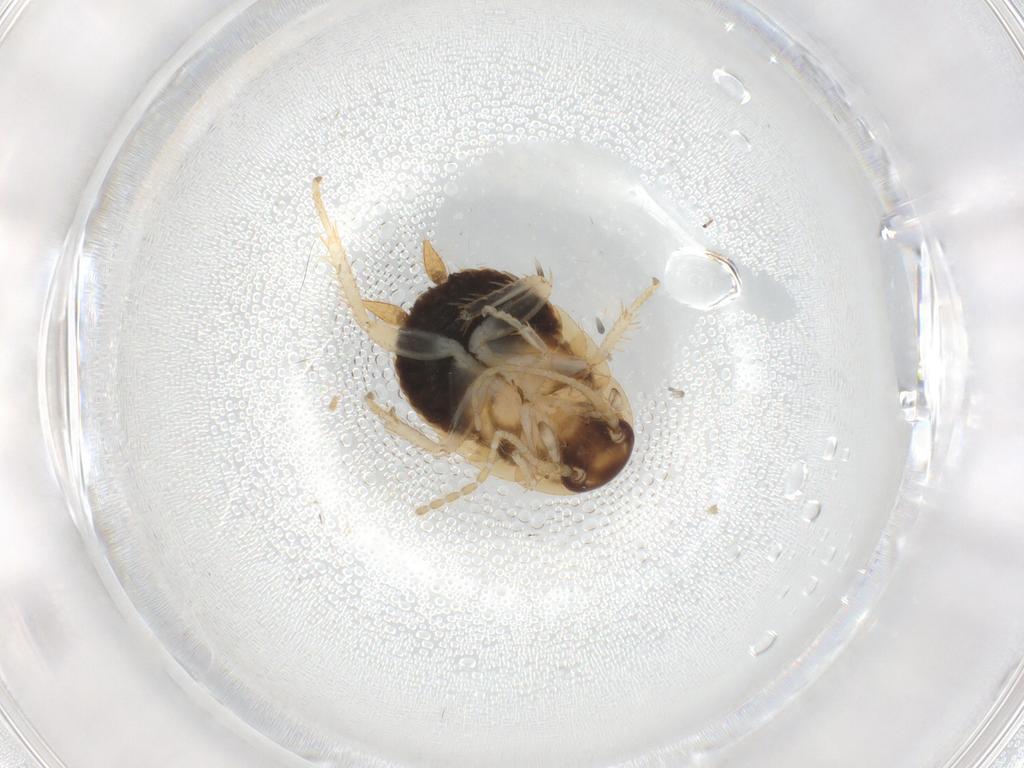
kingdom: Animalia
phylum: Arthropoda
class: Insecta
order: Blattodea
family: Ectobiidae
